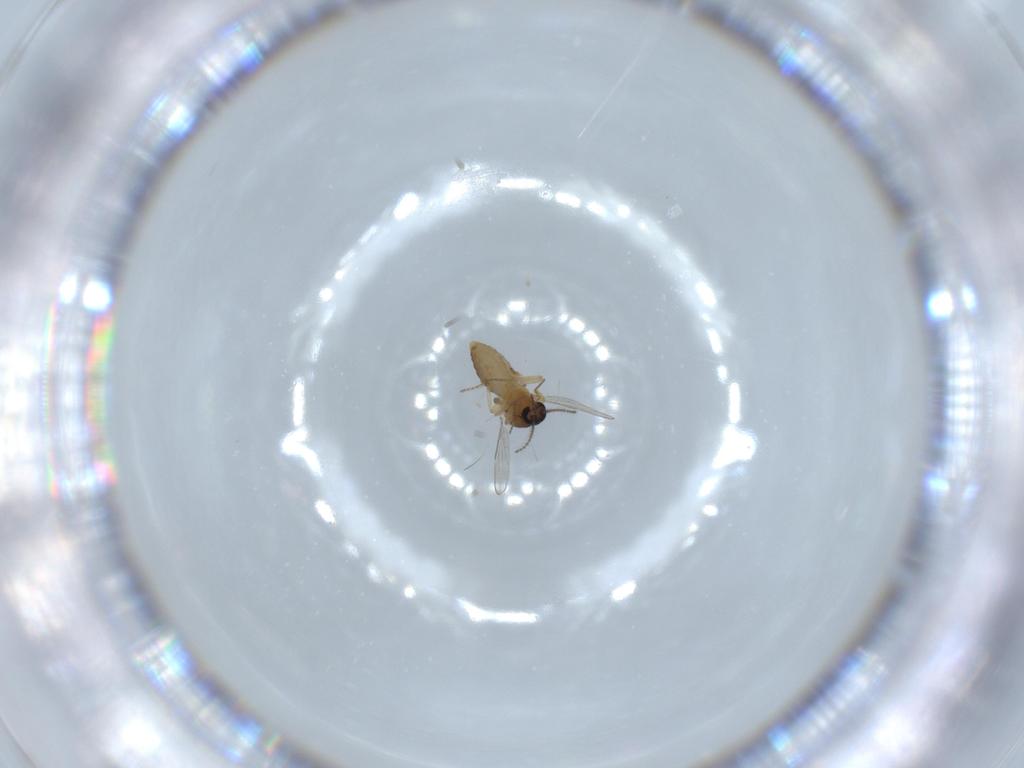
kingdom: Animalia
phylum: Arthropoda
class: Insecta
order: Diptera
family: Ceratopogonidae
